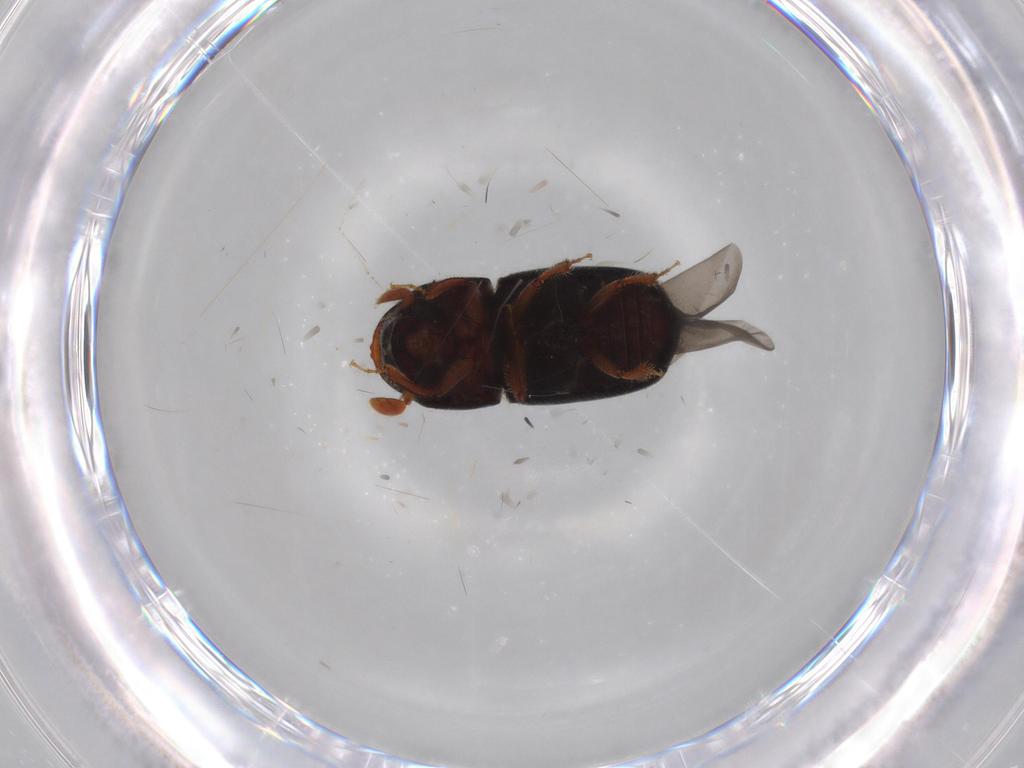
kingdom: Animalia
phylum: Arthropoda
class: Insecta
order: Coleoptera
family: Curculionidae
